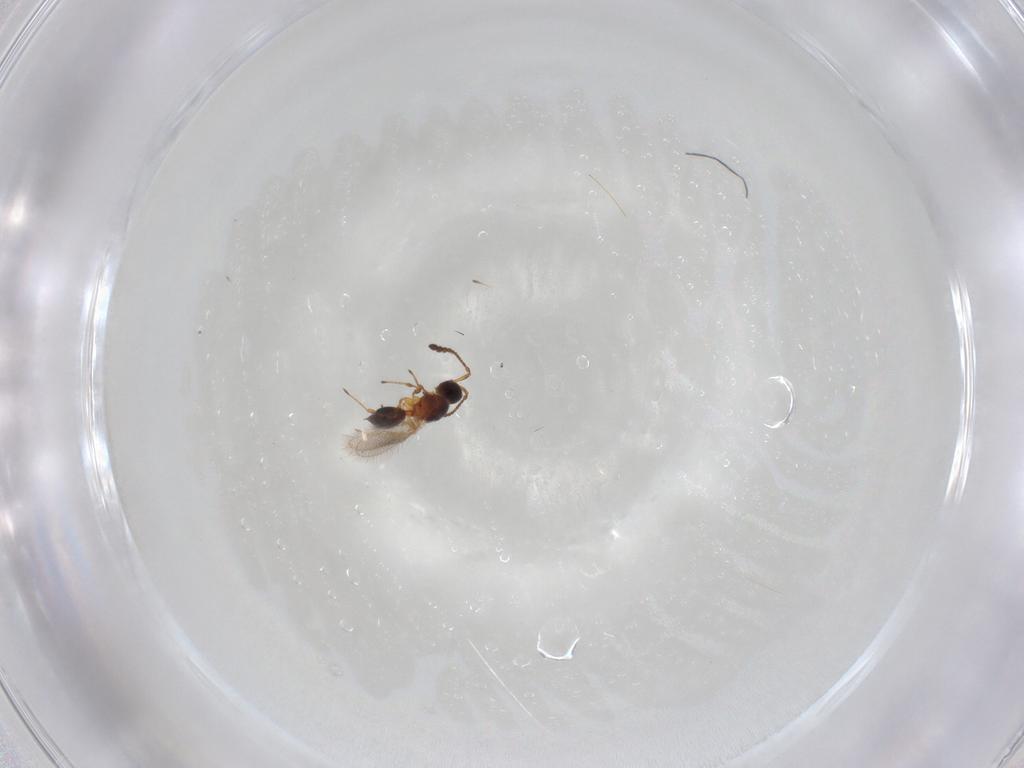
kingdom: Animalia
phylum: Arthropoda
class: Insecta
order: Hymenoptera
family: Diapriidae
